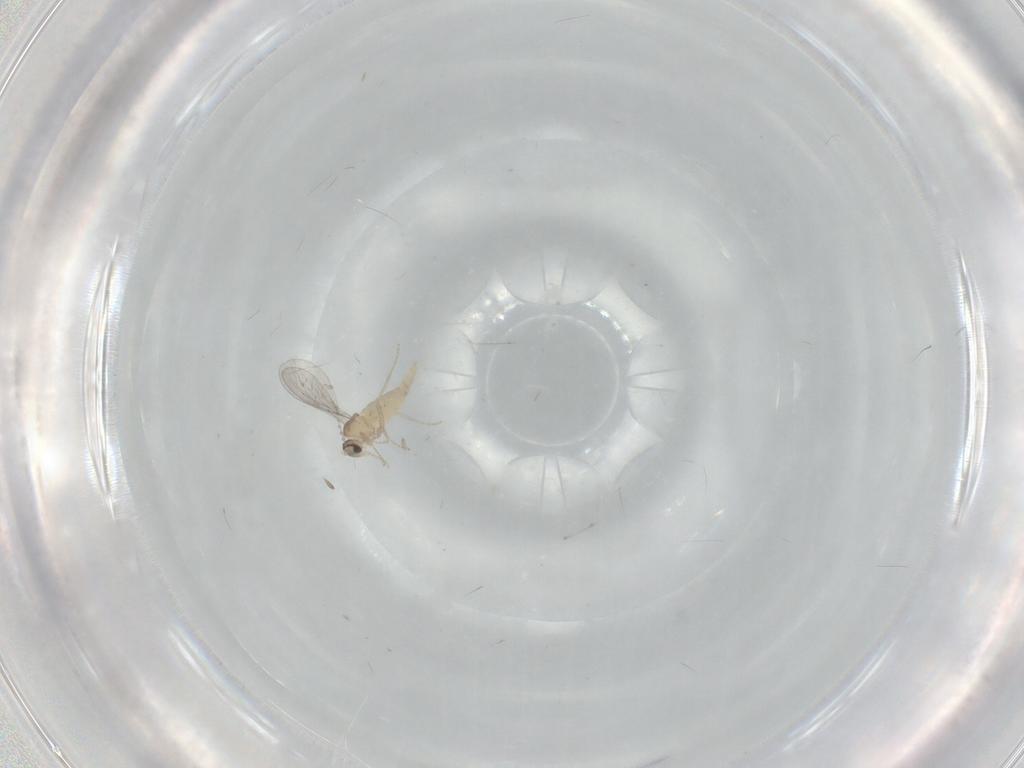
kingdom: Animalia
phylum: Arthropoda
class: Insecta
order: Diptera
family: Cecidomyiidae
